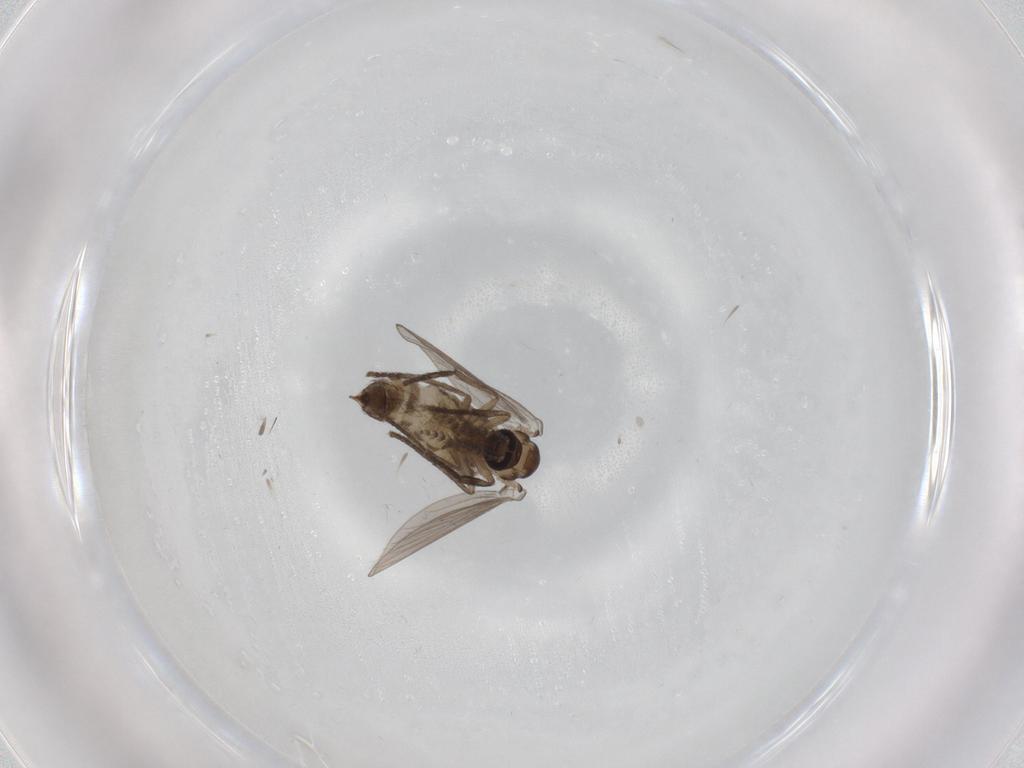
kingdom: Animalia
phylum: Arthropoda
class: Insecta
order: Diptera
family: Psychodidae
